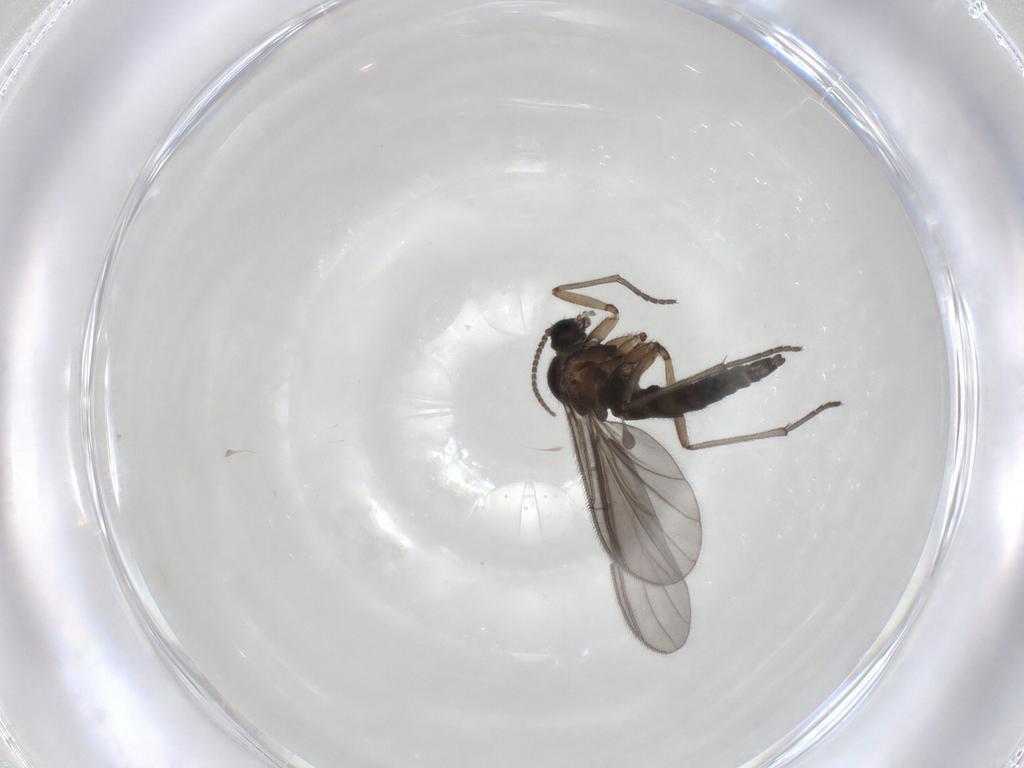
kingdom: Animalia
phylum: Arthropoda
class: Insecta
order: Diptera
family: Sciaridae
